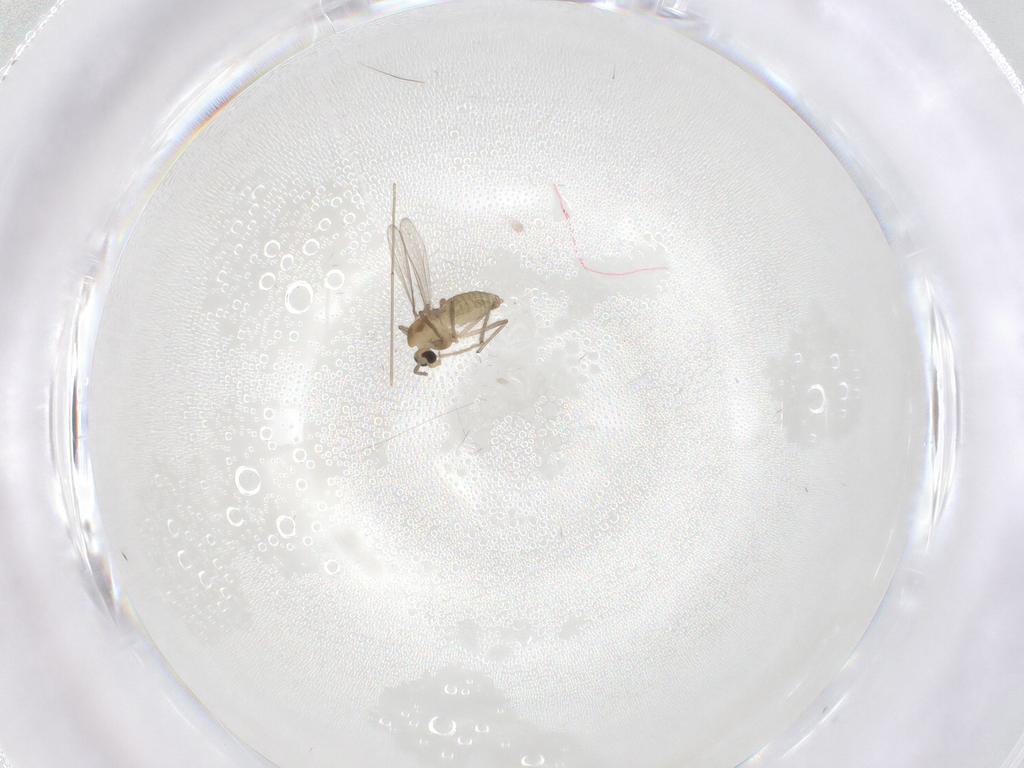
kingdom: Animalia
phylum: Arthropoda
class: Insecta
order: Diptera
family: Chironomidae
